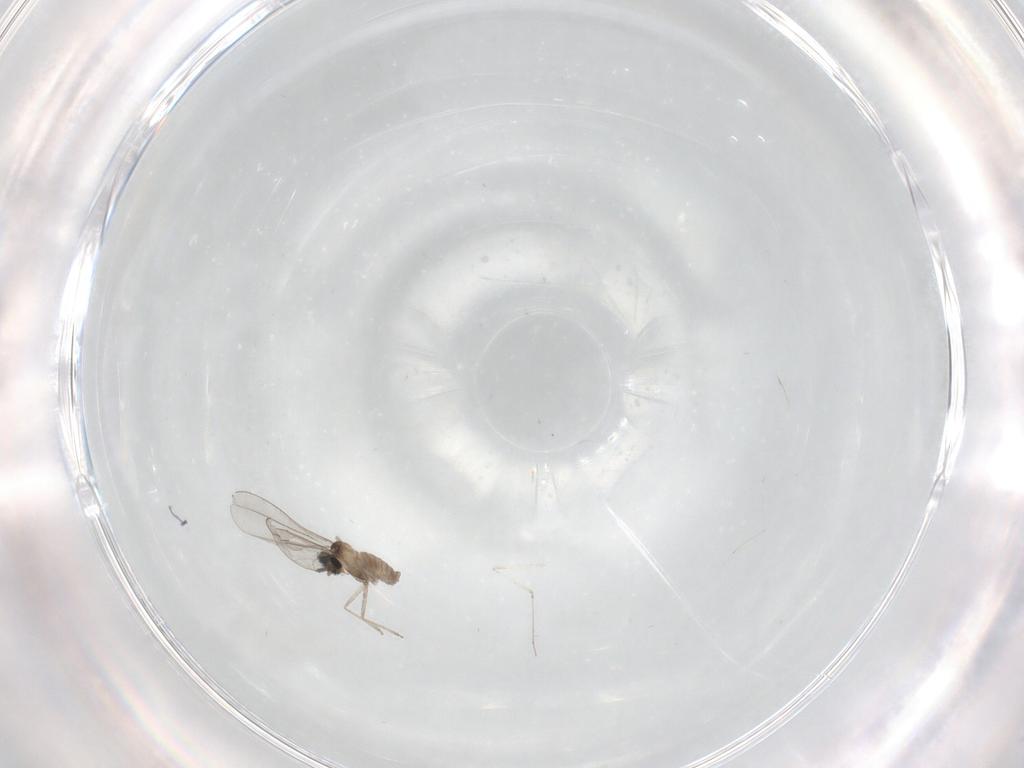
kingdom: Animalia
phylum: Arthropoda
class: Insecta
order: Diptera
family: Cecidomyiidae
